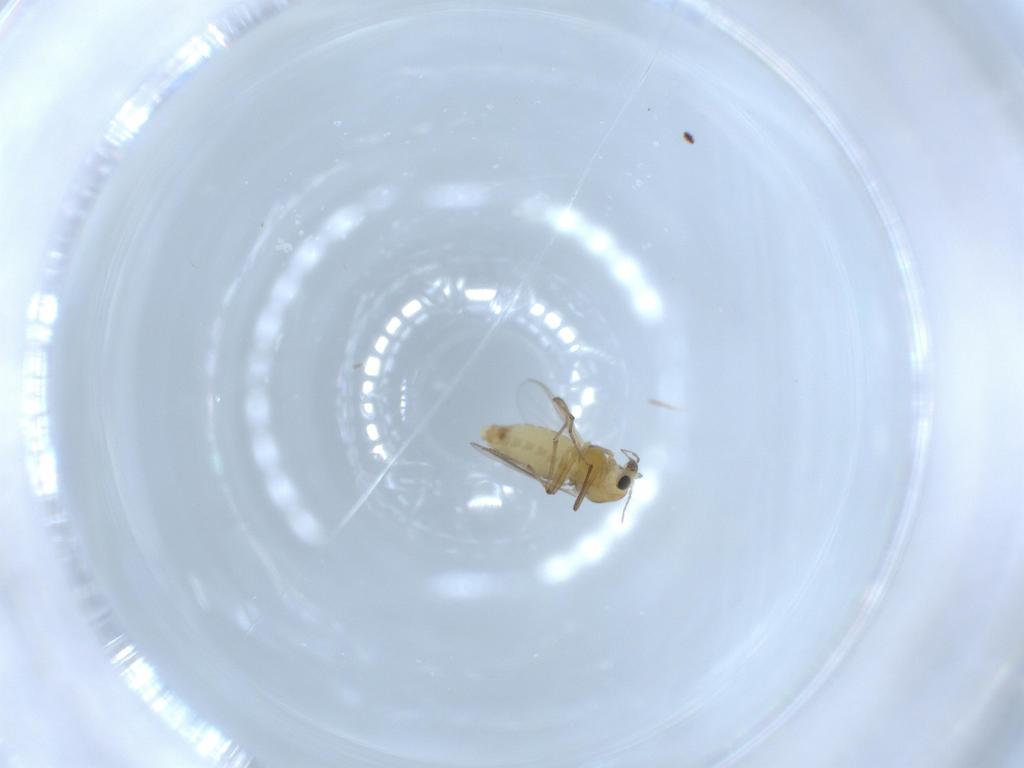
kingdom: Animalia
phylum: Arthropoda
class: Insecta
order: Diptera
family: Chironomidae
